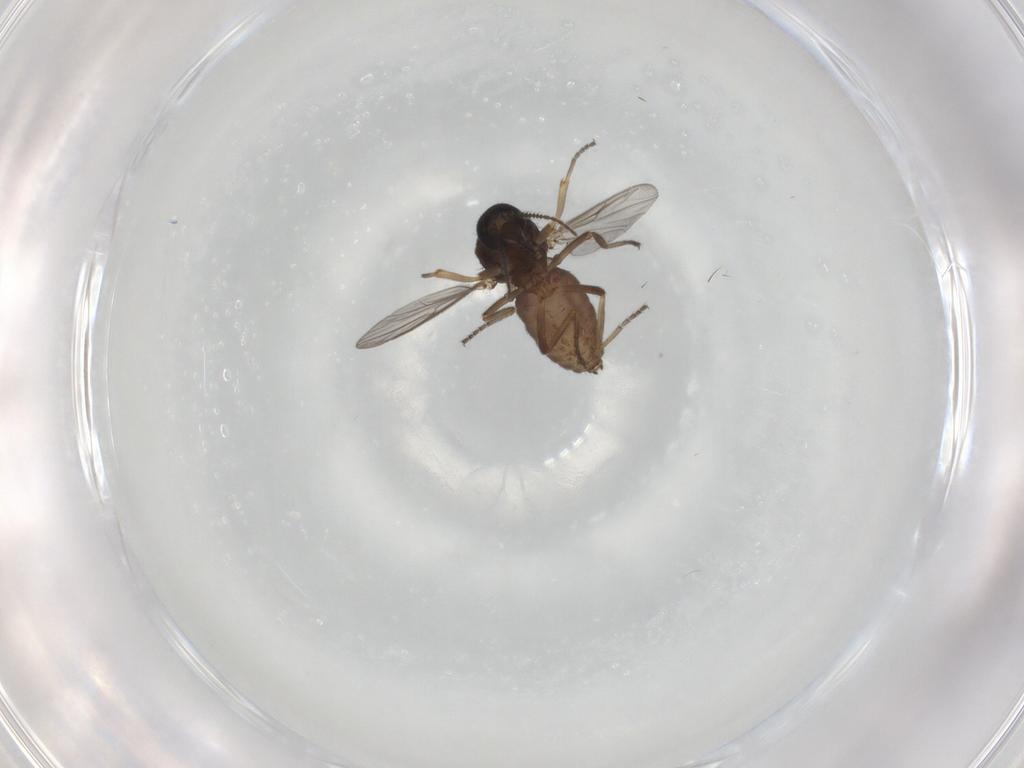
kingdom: Animalia
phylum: Arthropoda
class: Insecta
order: Diptera
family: Ceratopogonidae
